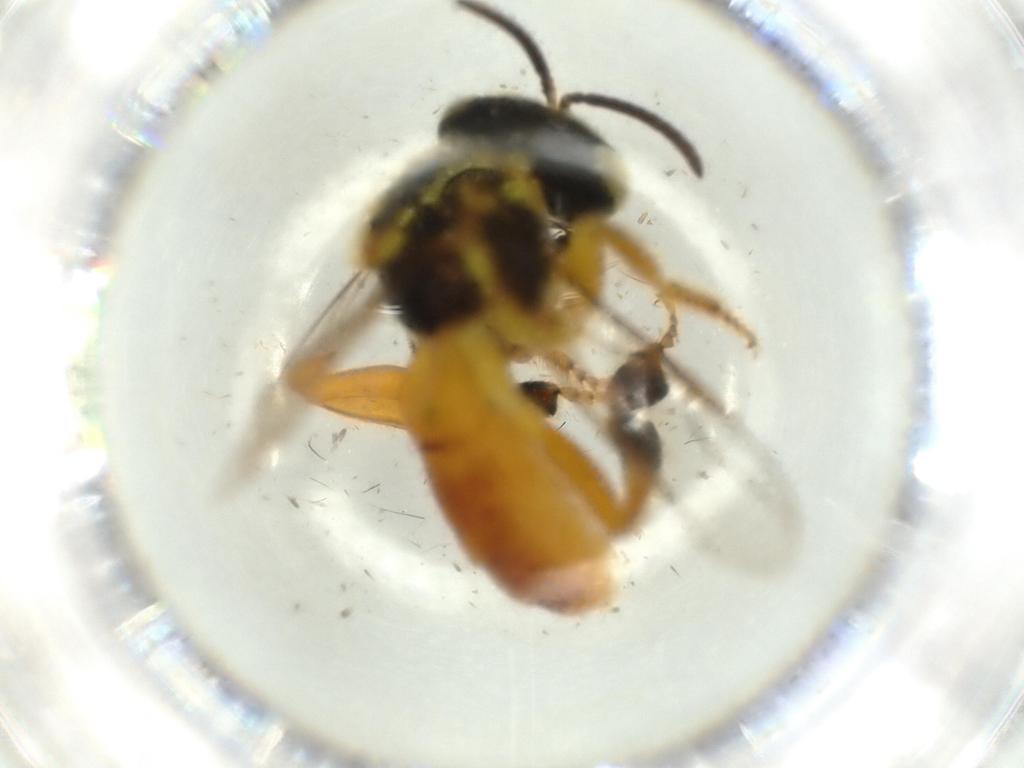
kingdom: Animalia
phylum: Arthropoda
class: Insecta
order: Hymenoptera
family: Apidae
